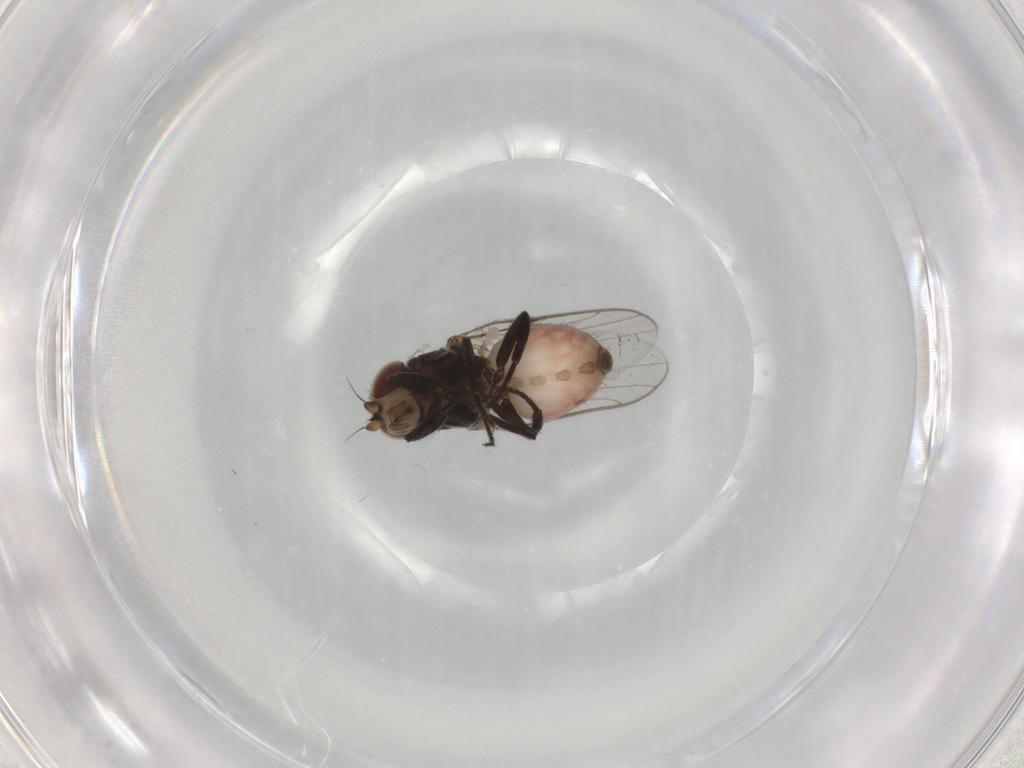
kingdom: Animalia
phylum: Arthropoda
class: Insecta
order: Diptera
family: Chloropidae
